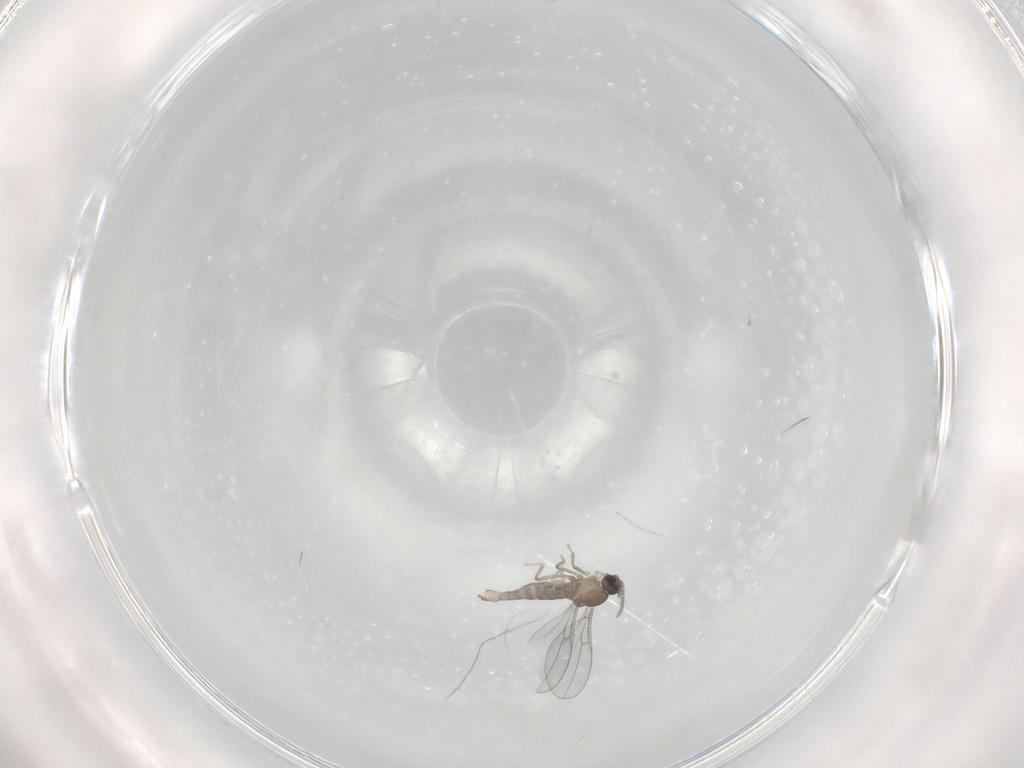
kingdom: Animalia
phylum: Arthropoda
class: Insecta
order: Diptera
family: Cecidomyiidae
